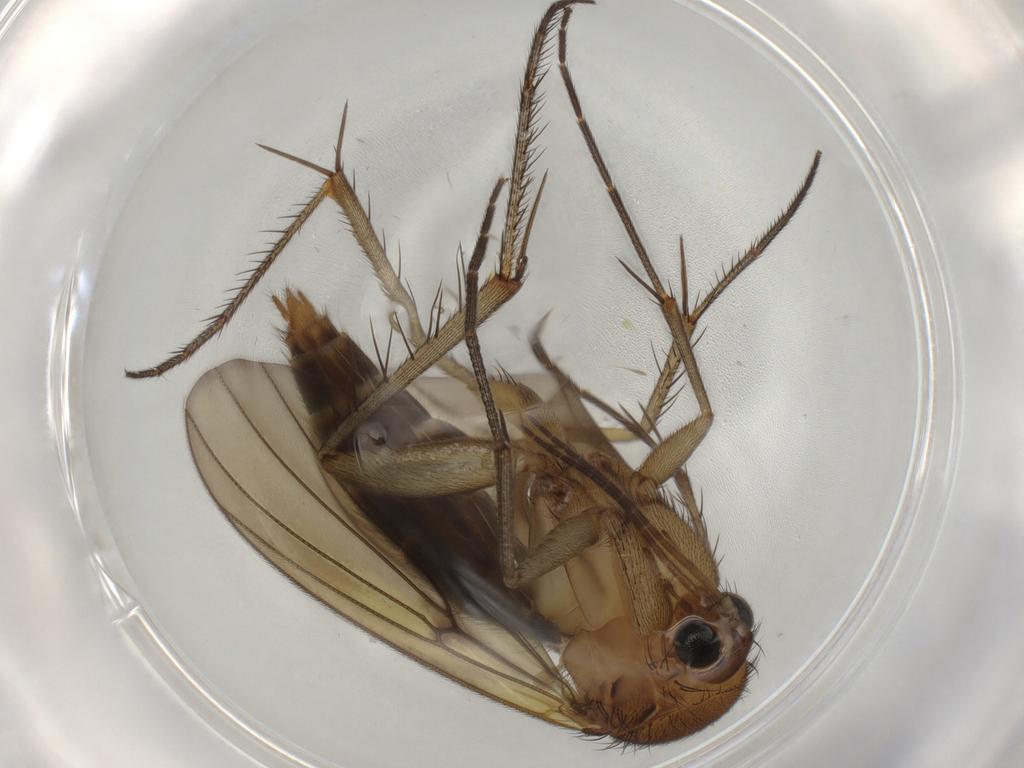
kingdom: Animalia
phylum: Arthropoda
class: Insecta
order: Diptera
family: Mycetophilidae
